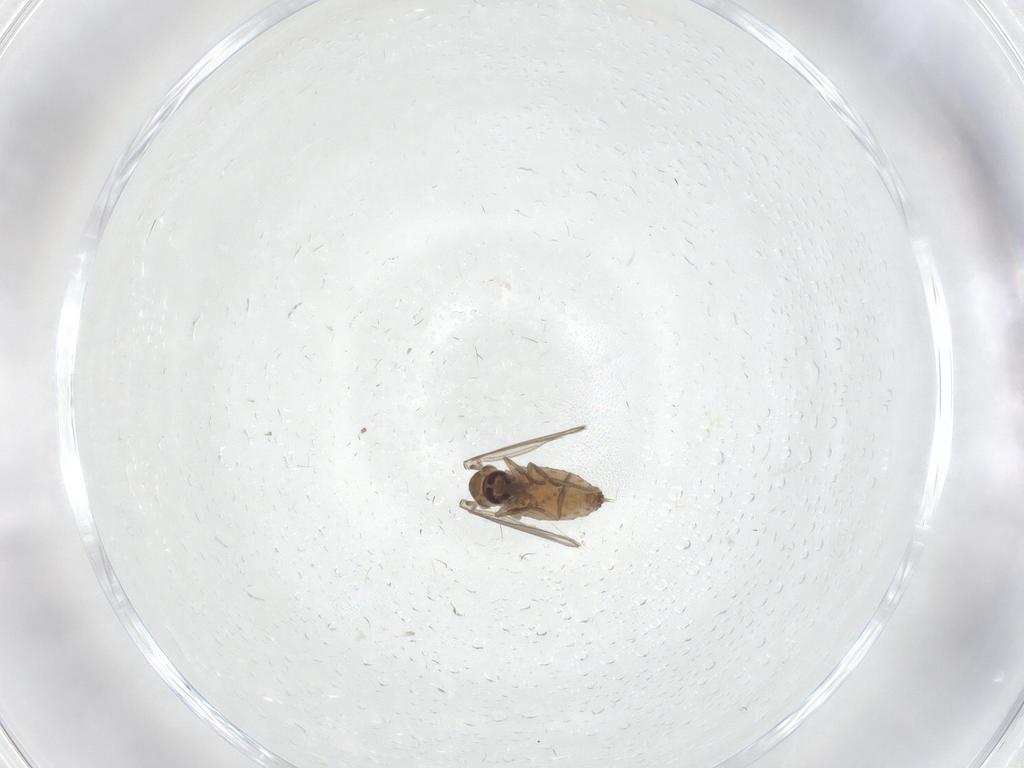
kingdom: Animalia
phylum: Arthropoda
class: Insecta
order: Diptera
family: Psychodidae
